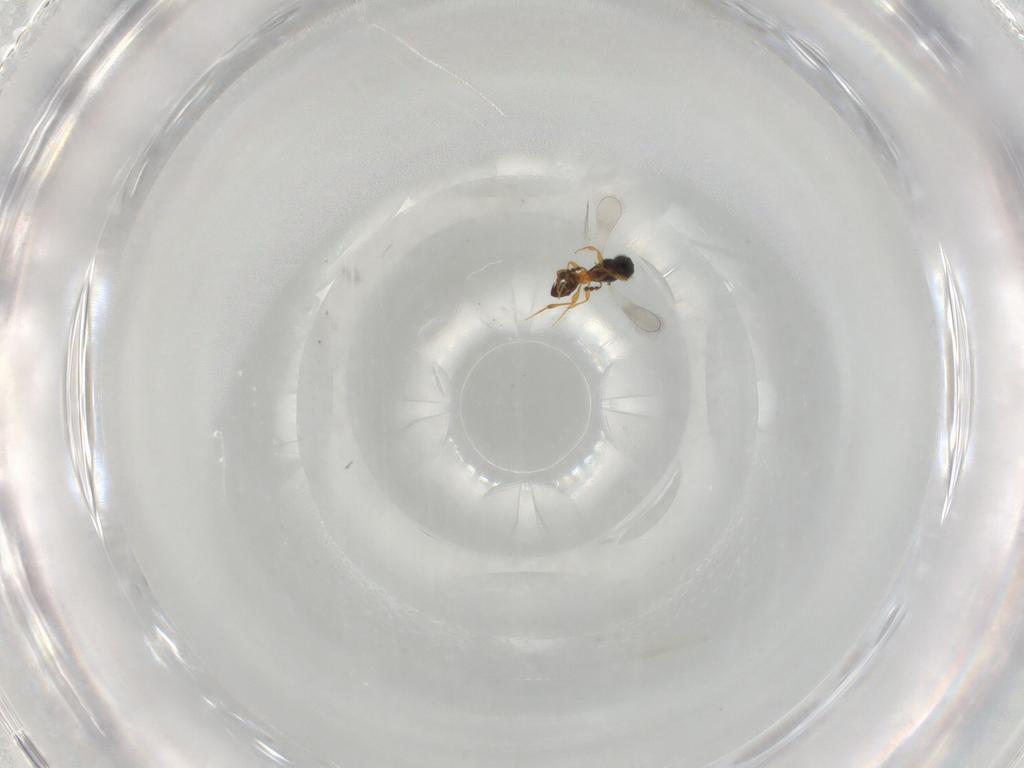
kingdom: Animalia
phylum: Arthropoda
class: Insecta
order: Hymenoptera
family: Platygastridae
